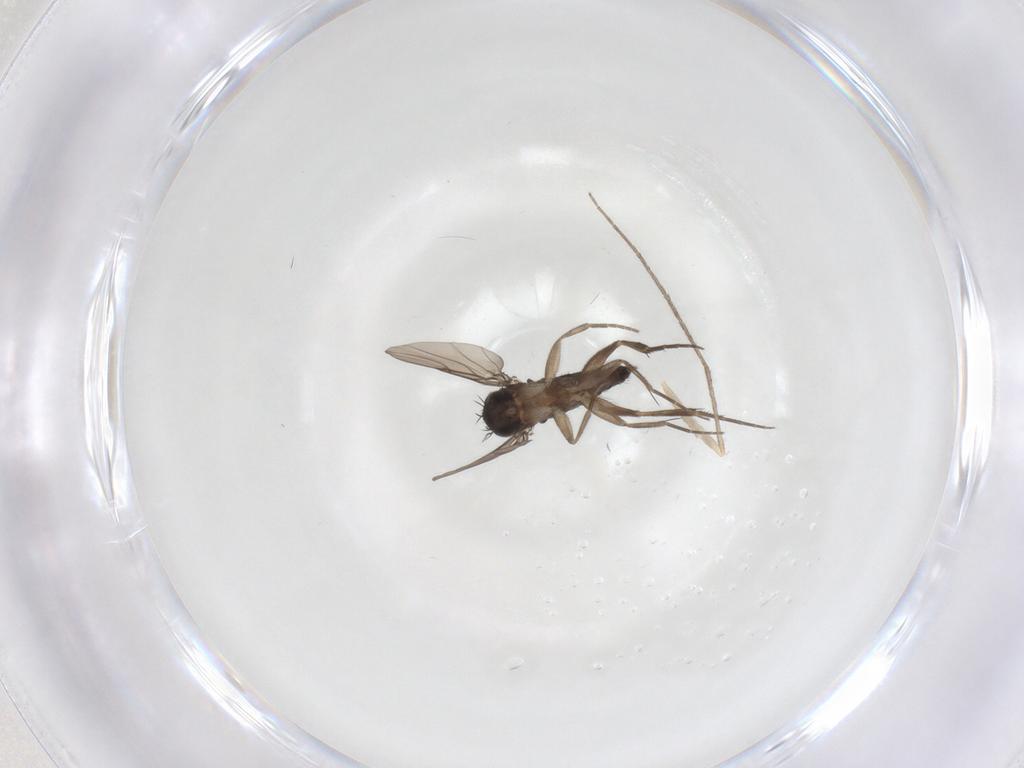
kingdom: Animalia
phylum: Arthropoda
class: Insecta
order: Diptera
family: Phoridae
